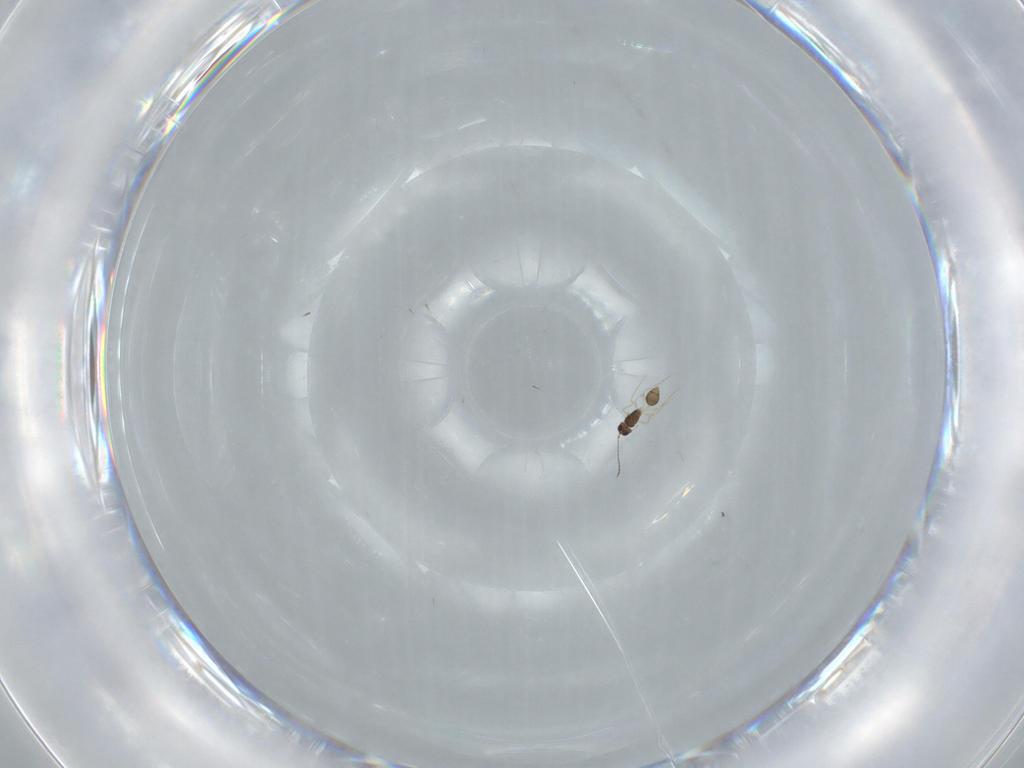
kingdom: Animalia
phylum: Arthropoda
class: Insecta
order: Hymenoptera
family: Mymarommatidae
